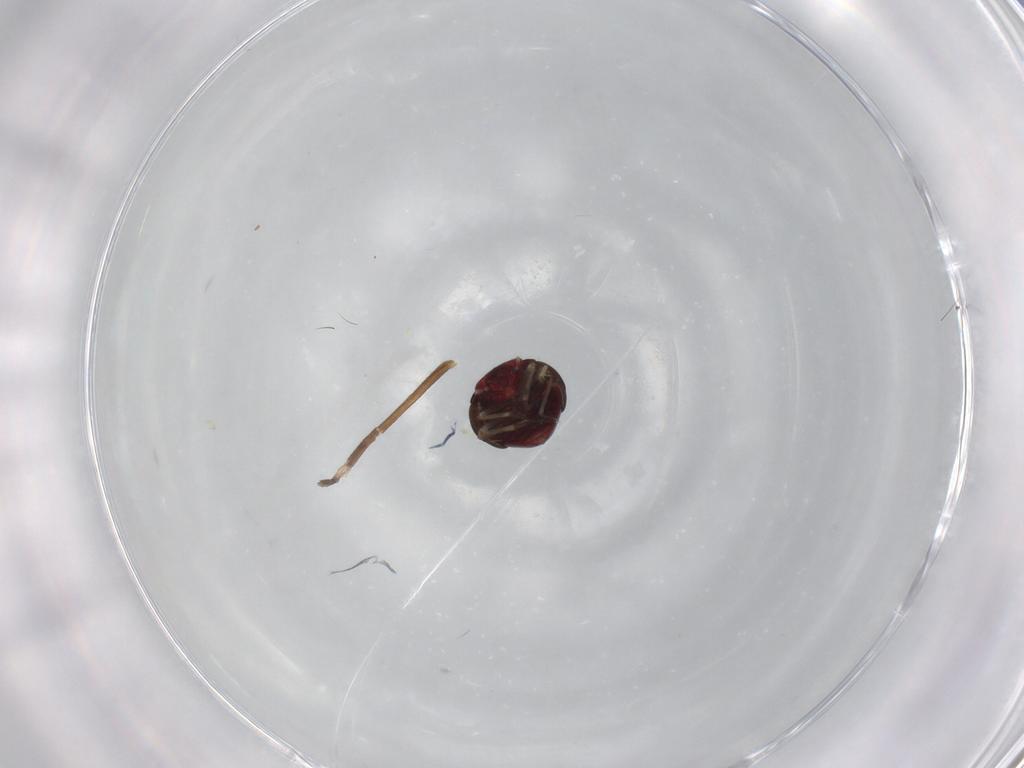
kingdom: Animalia
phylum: Arthropoda
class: Insecta
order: Hemiptera
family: Schizopteridae
